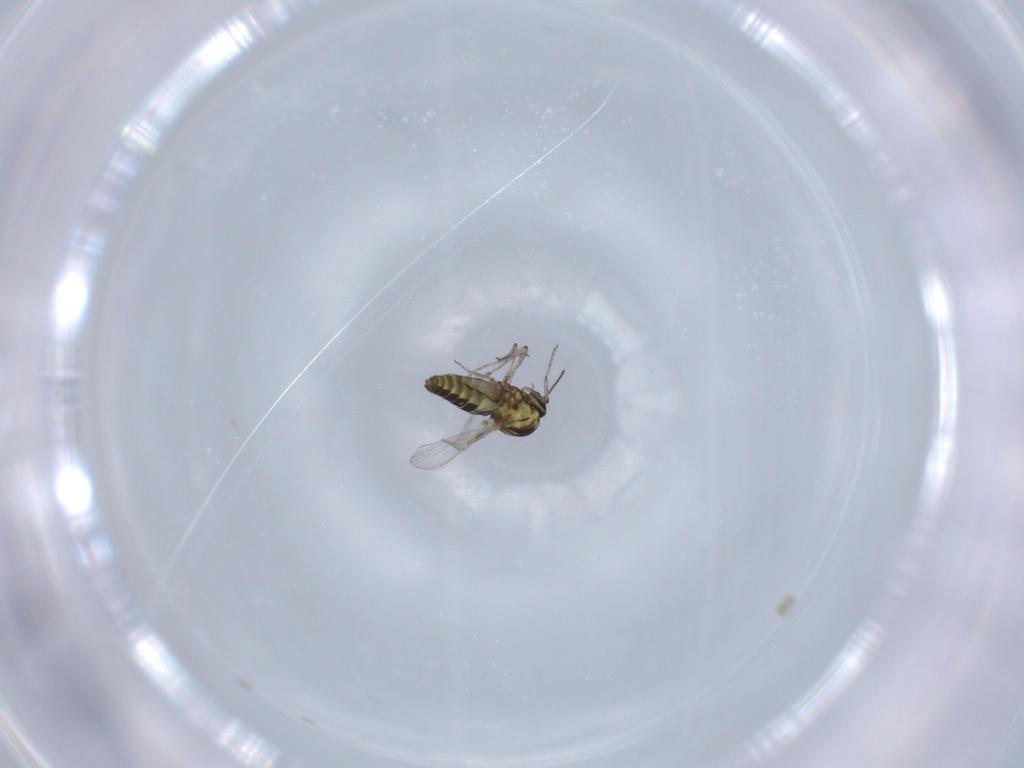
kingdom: Animalia
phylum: Arthropoda
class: Insecta
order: Diptera
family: Ceratopogonidae
